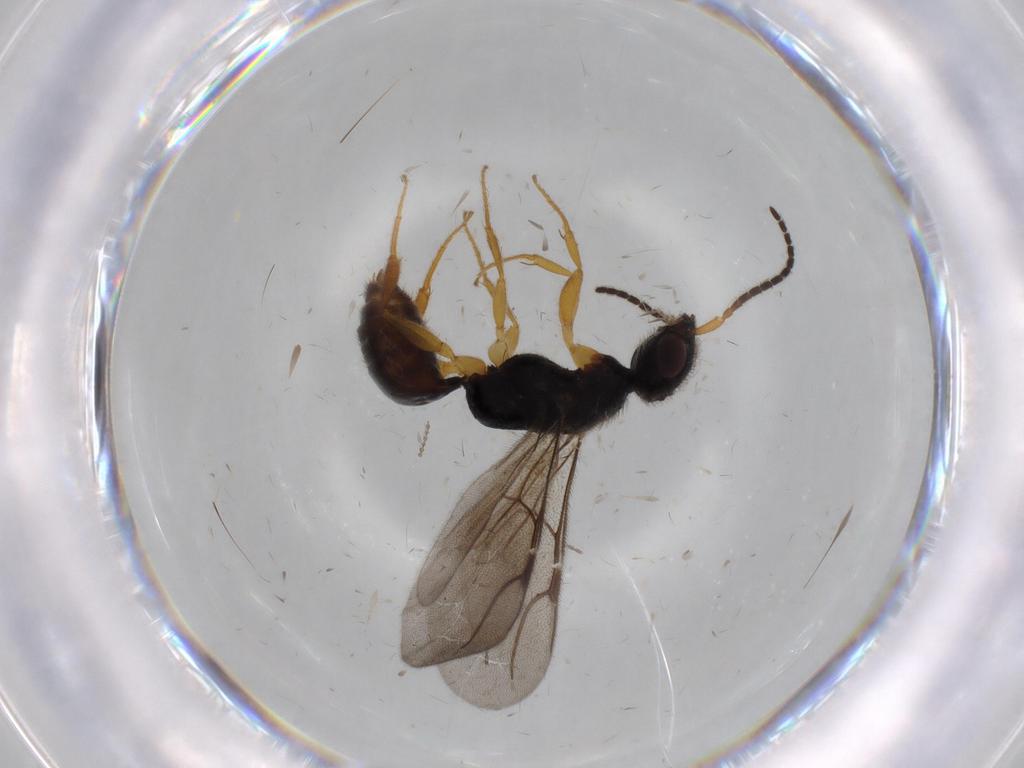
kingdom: Animalia
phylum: Arthropoda
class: Insecta
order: Hymenoptera
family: Bethylidae
